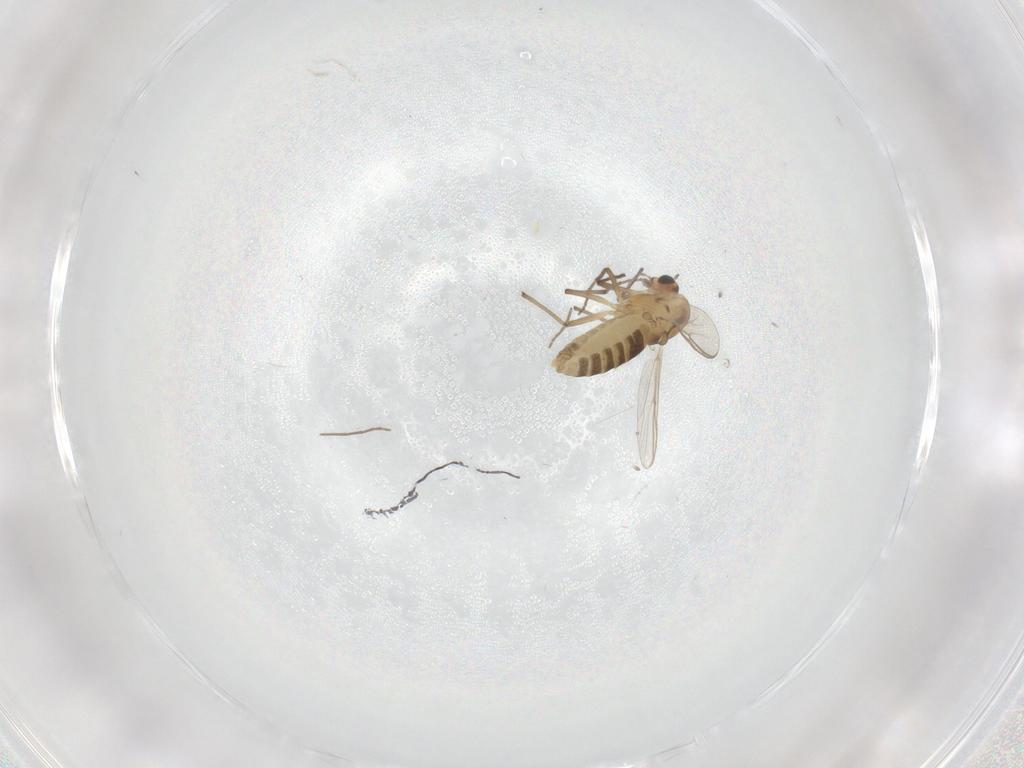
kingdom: Animalia
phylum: Arthropoda
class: Insecta
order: Diptera
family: Chironomidae
